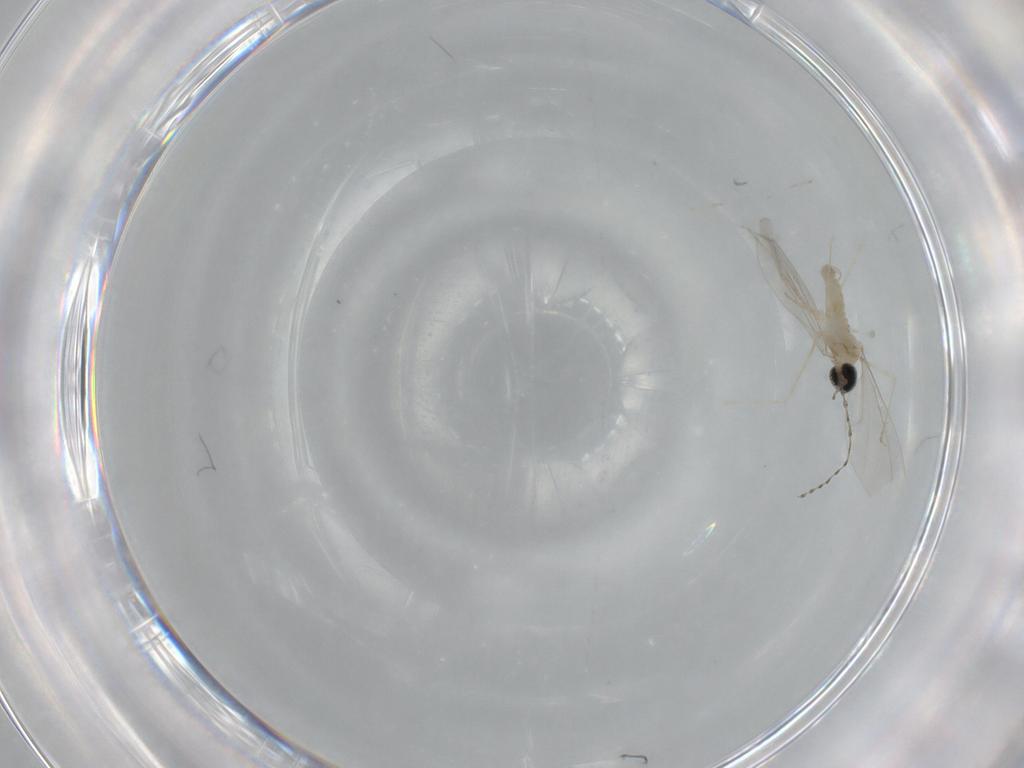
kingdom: Animalia
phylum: Arthropoda
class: Insecta
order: Diptera
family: Cecidomyiidae
